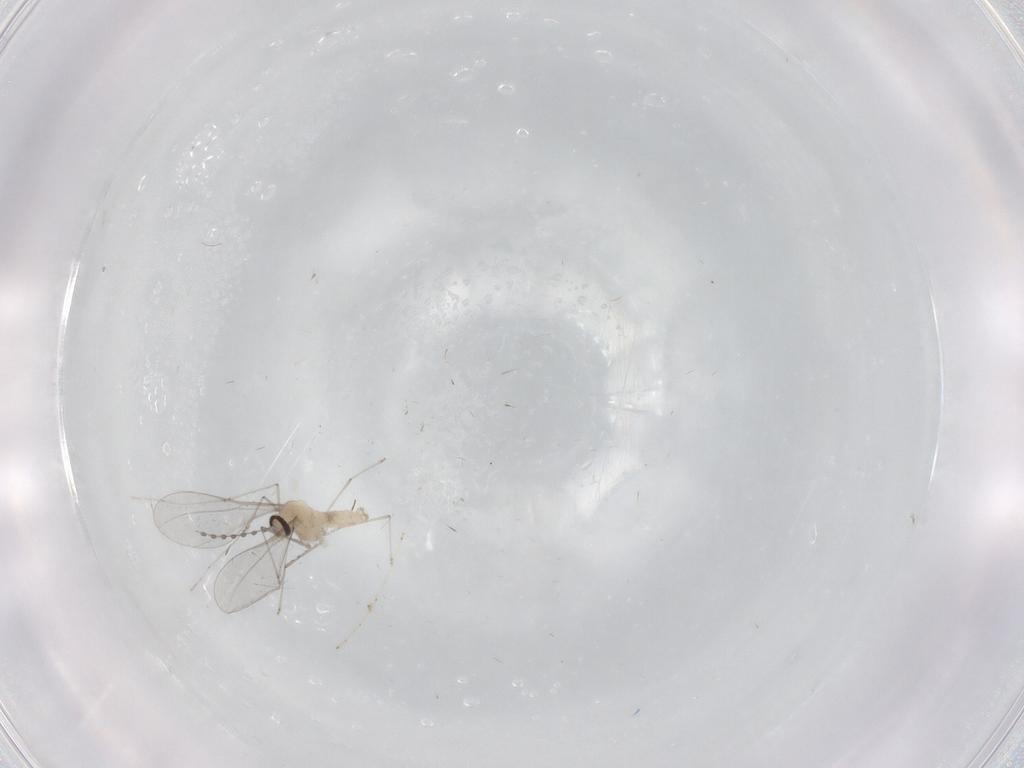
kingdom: Animalia
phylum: Arthropoda
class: Insecta
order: Diptera
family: Cecidomyiidae
